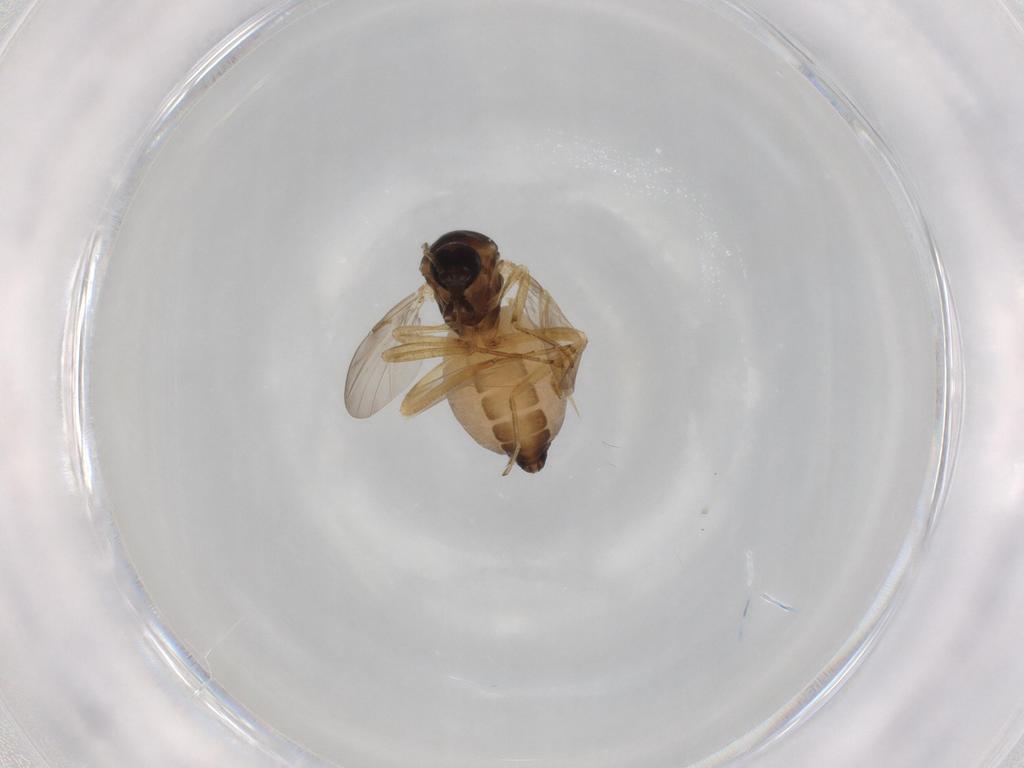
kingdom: Animalia
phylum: Arthropoda
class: Insecta
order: Diptera
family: Ceratopogonidae
